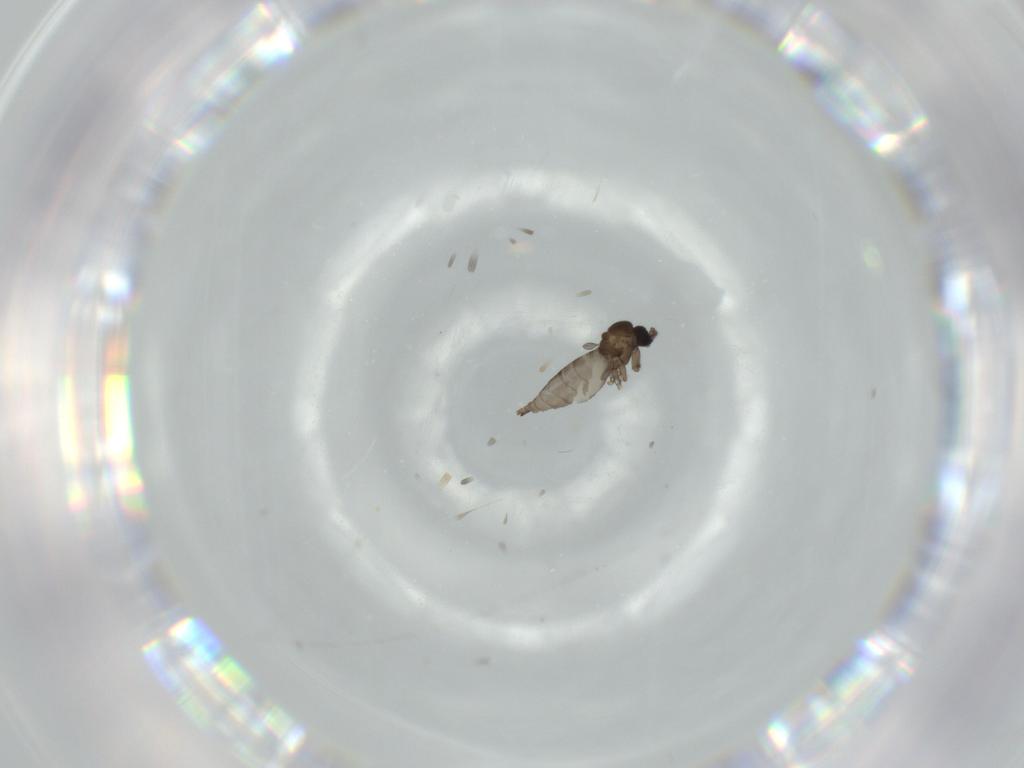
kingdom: Animalia
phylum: Arthropoda
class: Insecta
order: Diptera
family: Sciaridae
